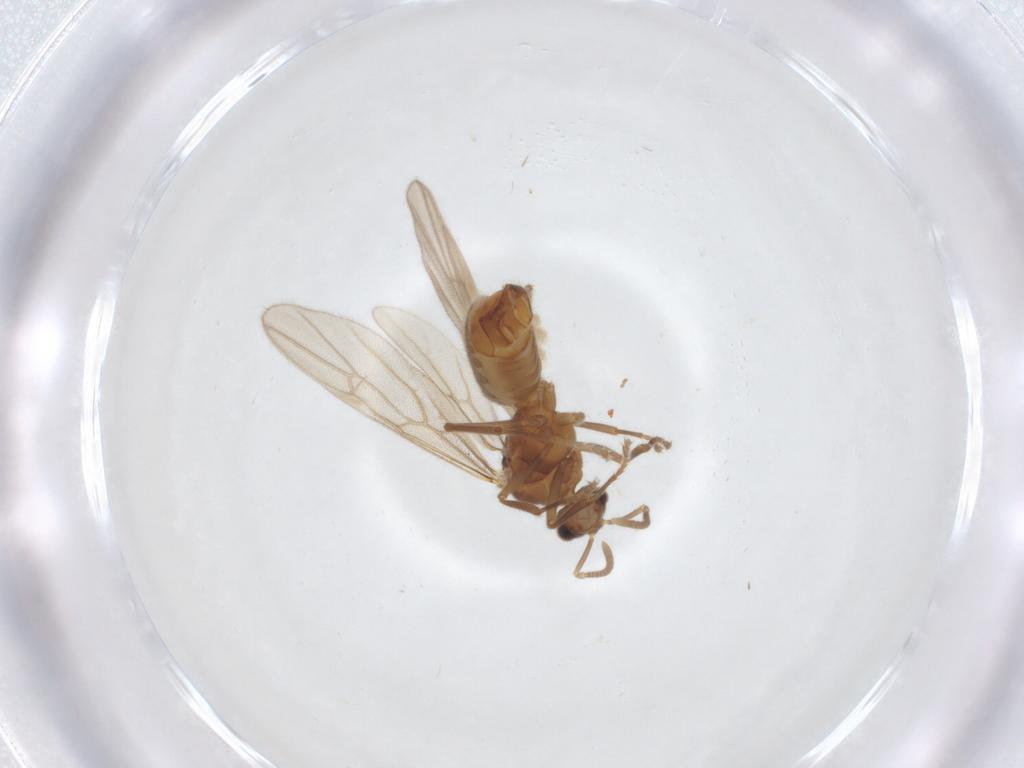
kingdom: Animalia
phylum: Arthropoda
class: Insecta
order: Hymenoptera
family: Formicidae
